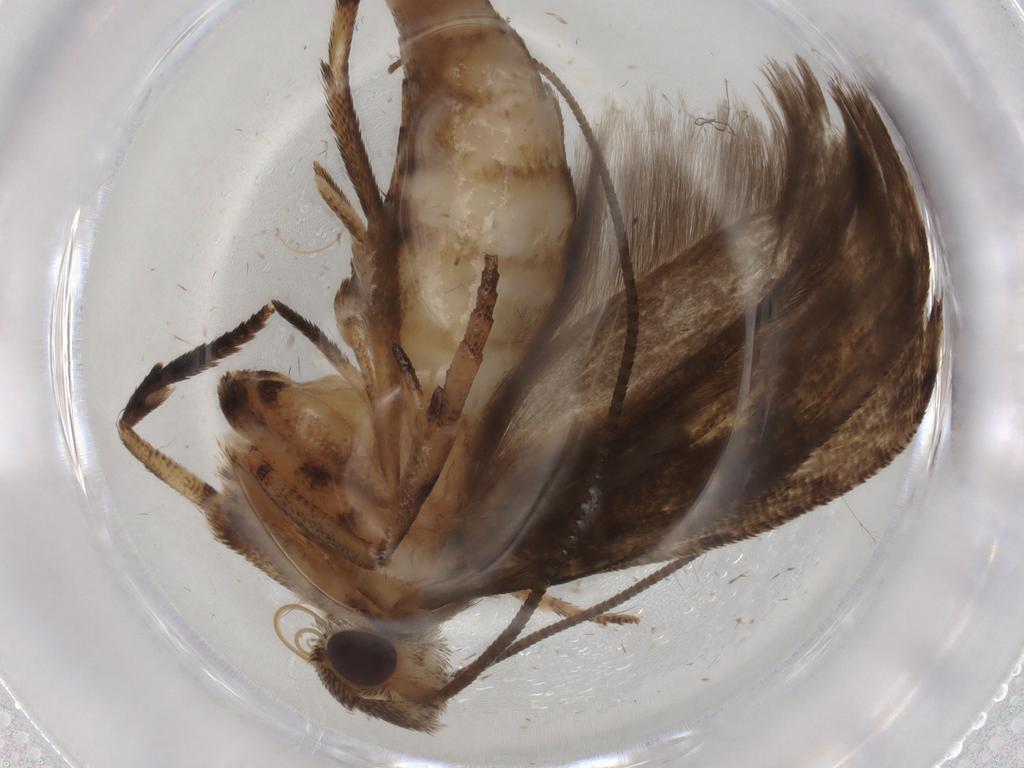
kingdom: Animalia
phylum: Arthropoda
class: Insecta
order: Lepidoptera
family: Yponomeutidae
